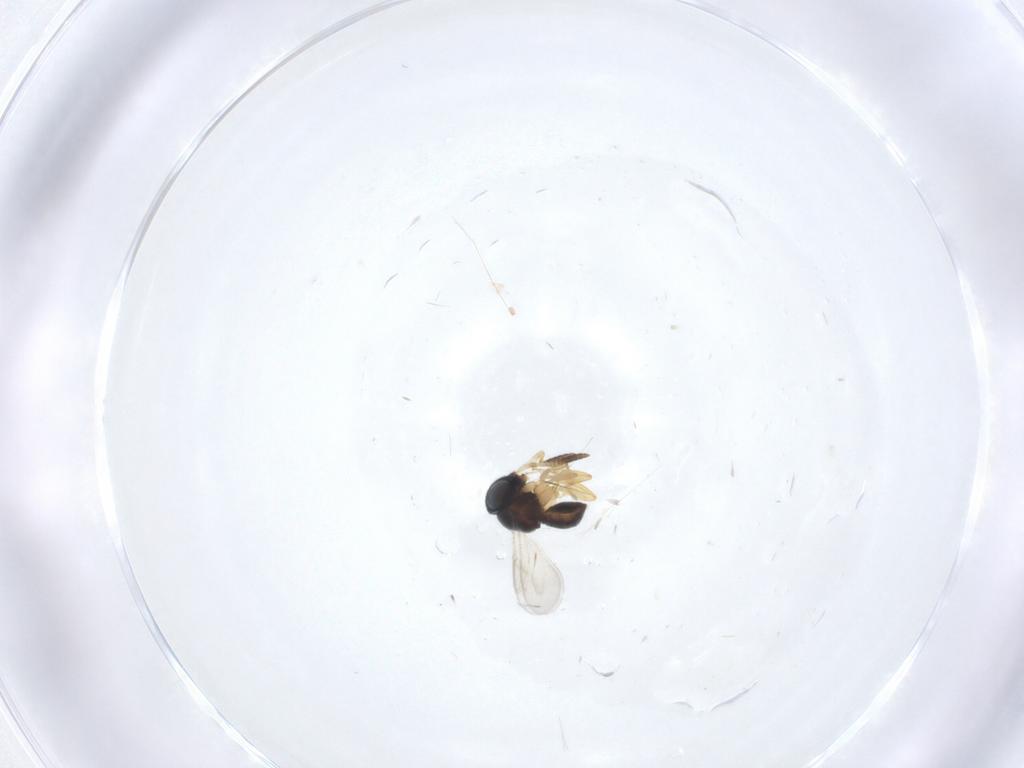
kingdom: Animalia
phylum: Arthropoda
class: Insecta
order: Hymenoptera
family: Scelionidae
